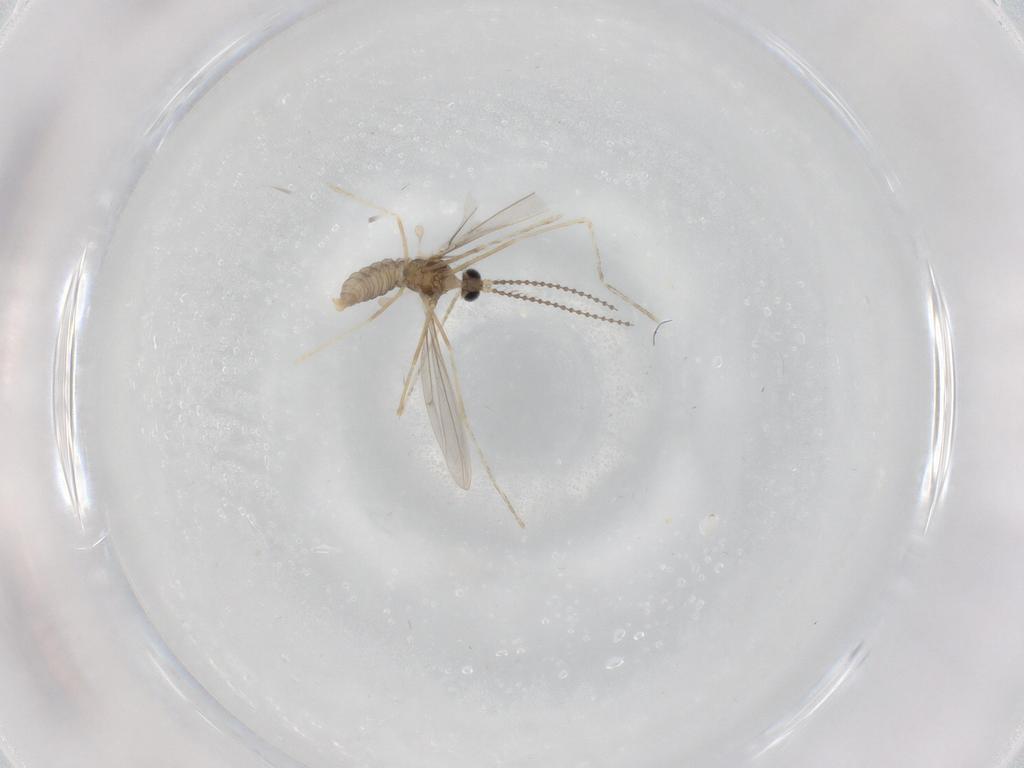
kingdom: Animalia
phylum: Arthropoda
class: Insecta
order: Diptera
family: Cecidomyiidae
